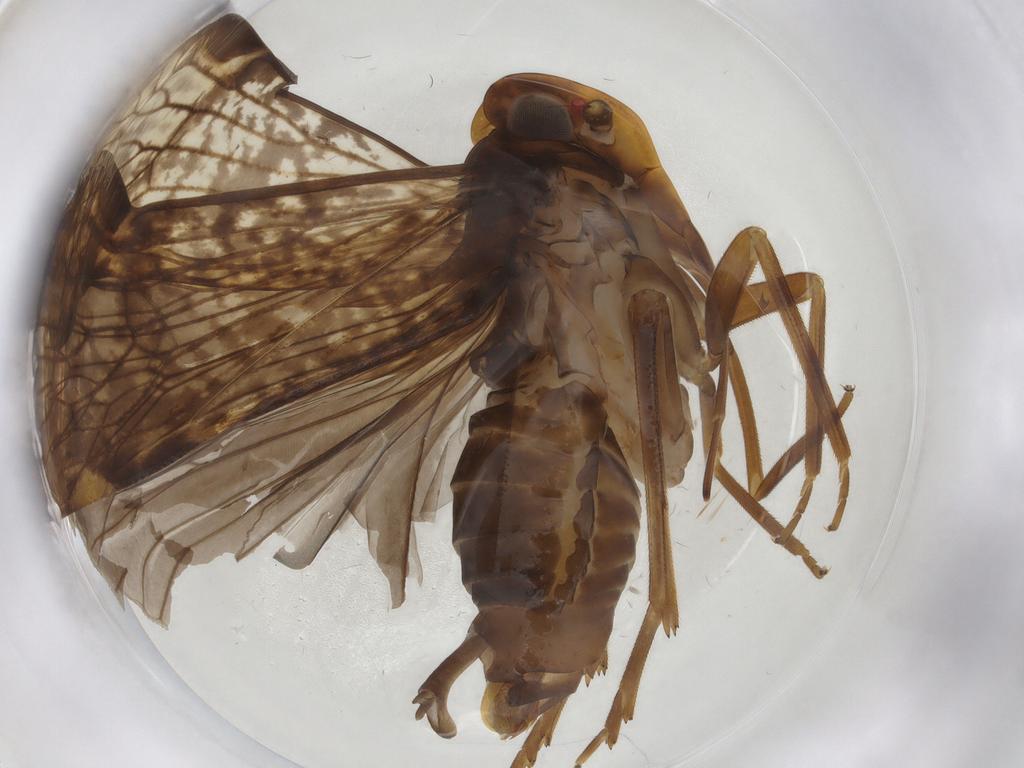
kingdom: Animalia
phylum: Arthropoda
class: Insecta
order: Hemiptera
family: Cixiidae
